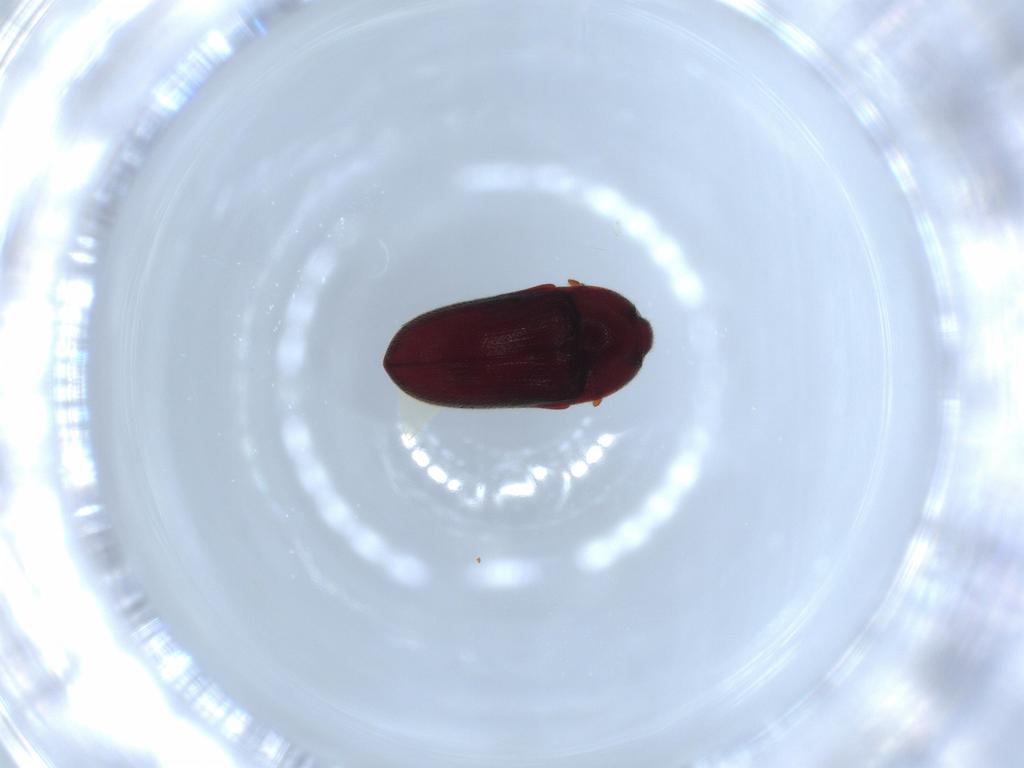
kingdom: Animalia
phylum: Arthropoda
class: Insecta
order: Coleoptera
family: Throscidae
